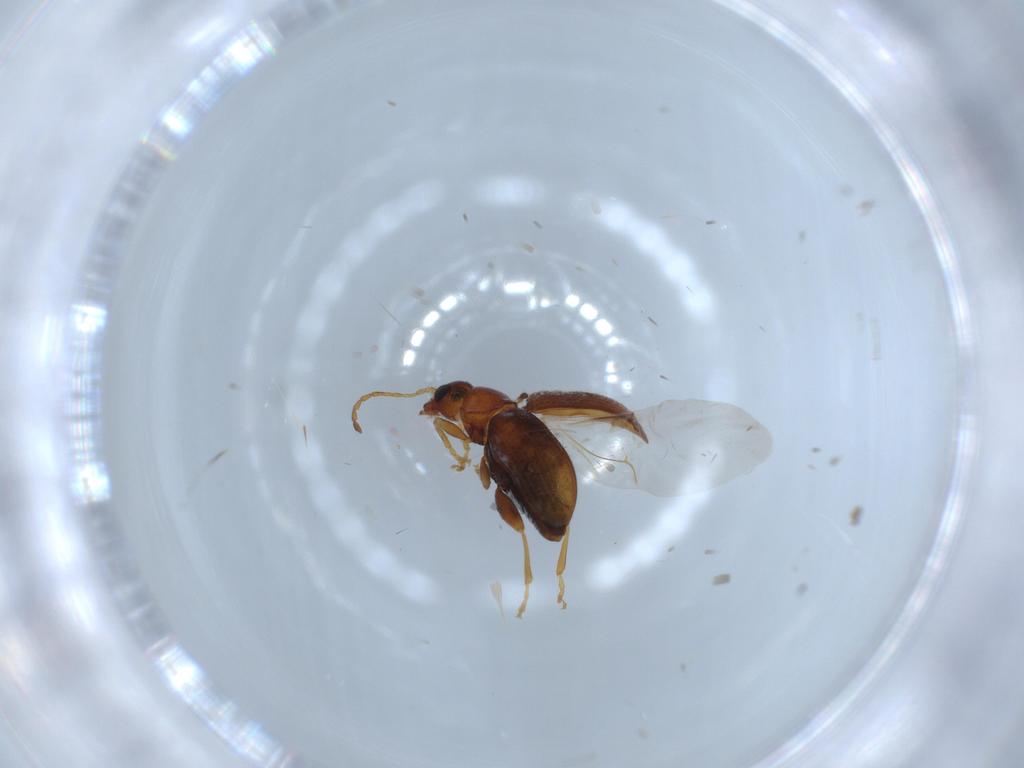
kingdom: Animalia
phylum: Arthropoda
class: Insecta
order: Coleoptera
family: Chrysomelidae
